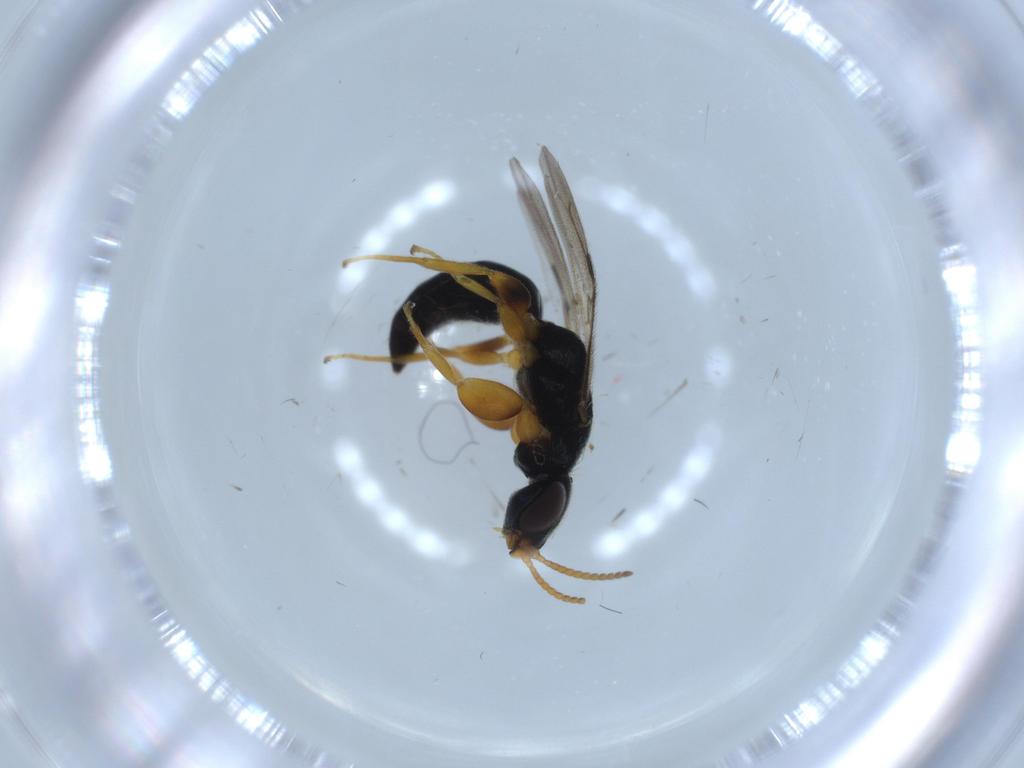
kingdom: Animalia
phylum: Arthropoda
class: Insecta
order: Hymenoptera
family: Bethylidae
